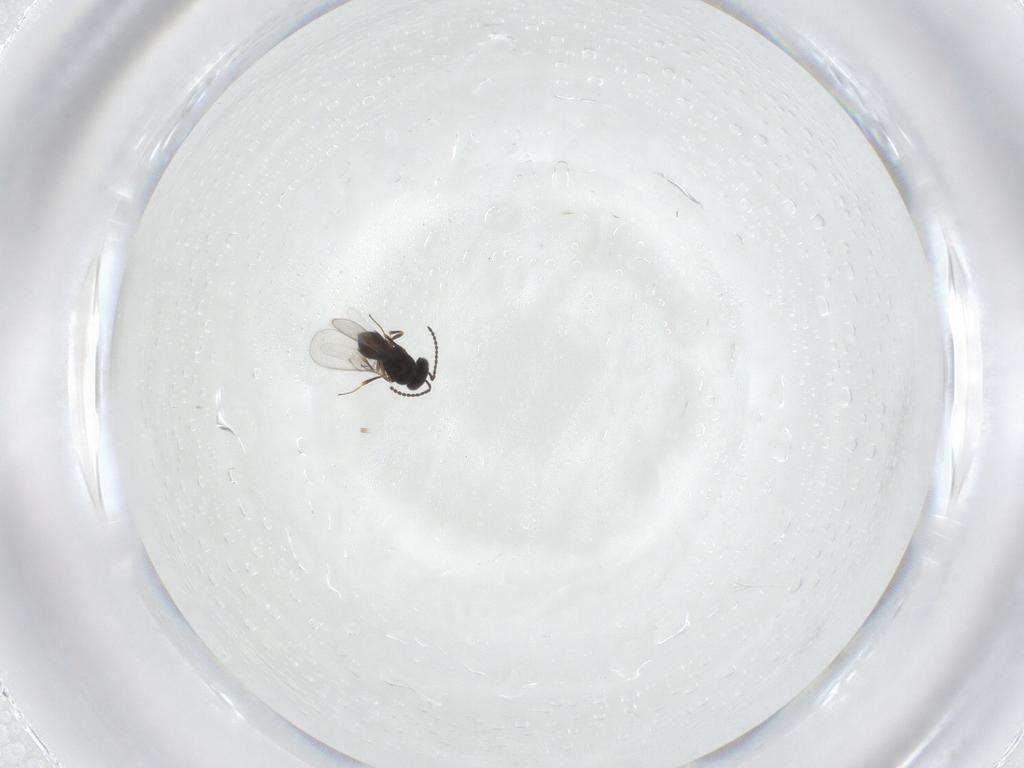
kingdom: Animalia
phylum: Arthropoda
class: Insecta
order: Hymenoptera
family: Scelionidae
